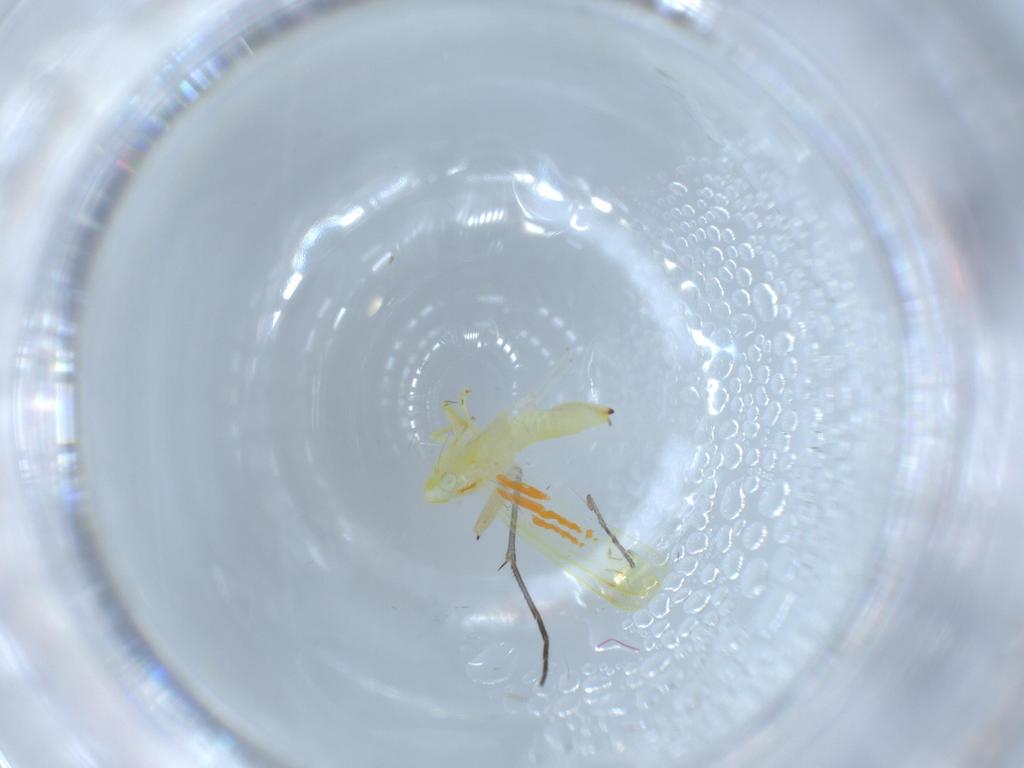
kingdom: Animalia
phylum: Arthropoda
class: Insecta
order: Hemiptera
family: Cicadellidae
